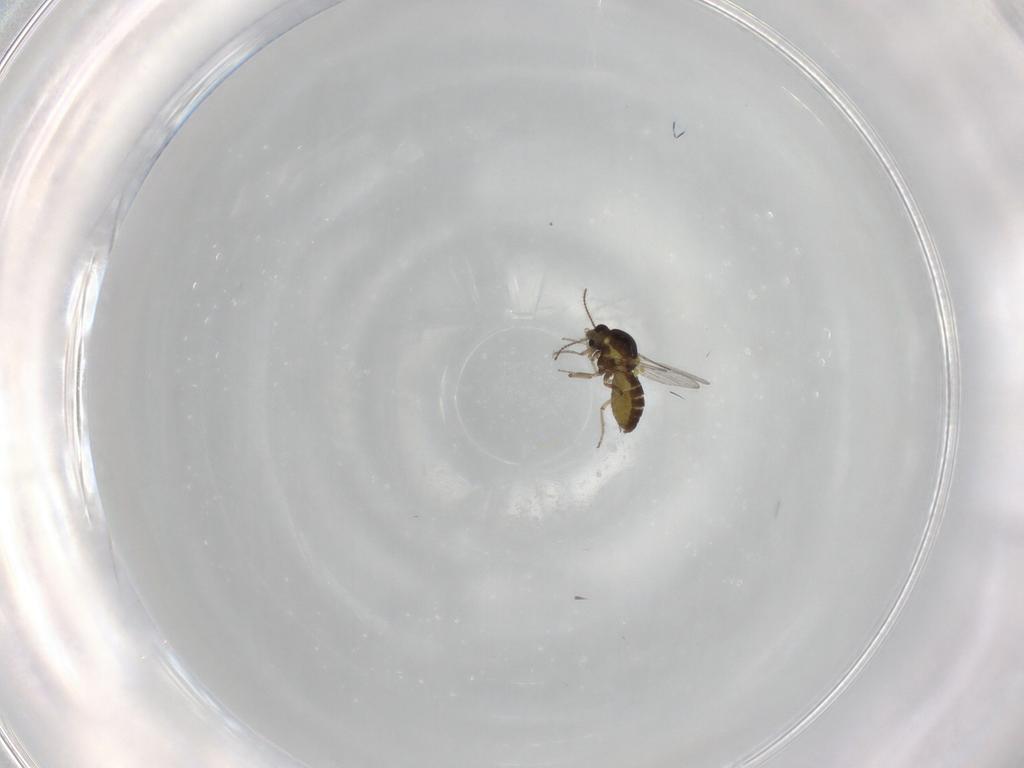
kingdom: Animalia
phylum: Arthropoda
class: Insecta
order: Diptera
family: Ceratopogonidae
